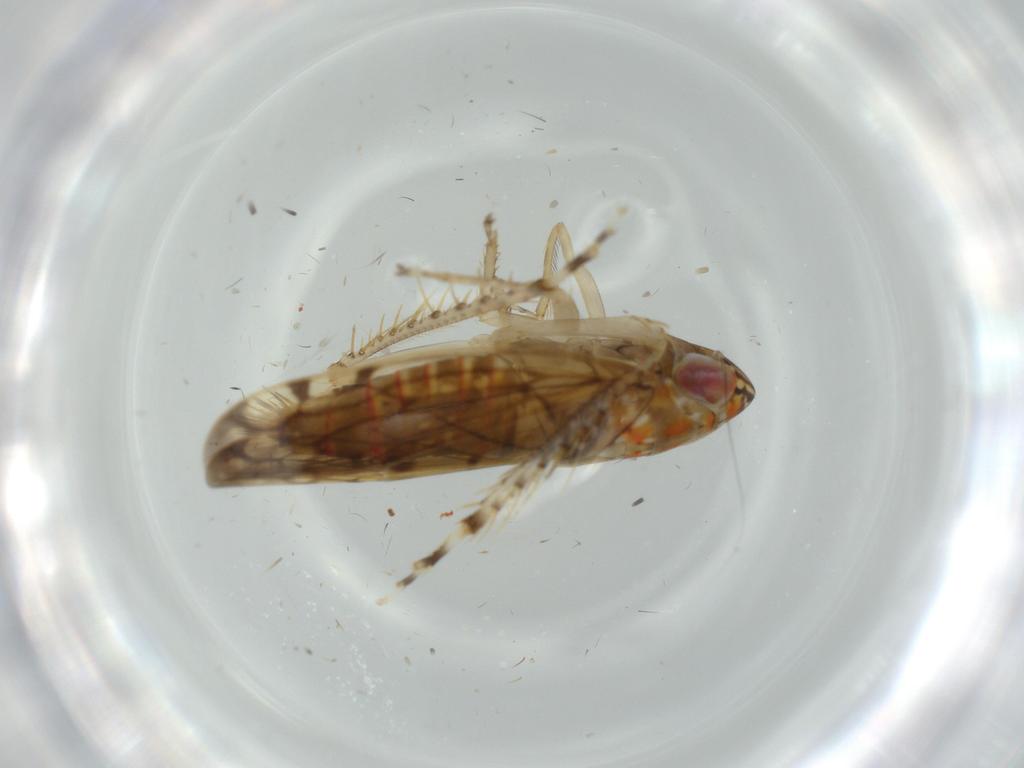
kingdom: Animalia
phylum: Arthropoda
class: Insecta
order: Hemiptera
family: Cicadellidae
